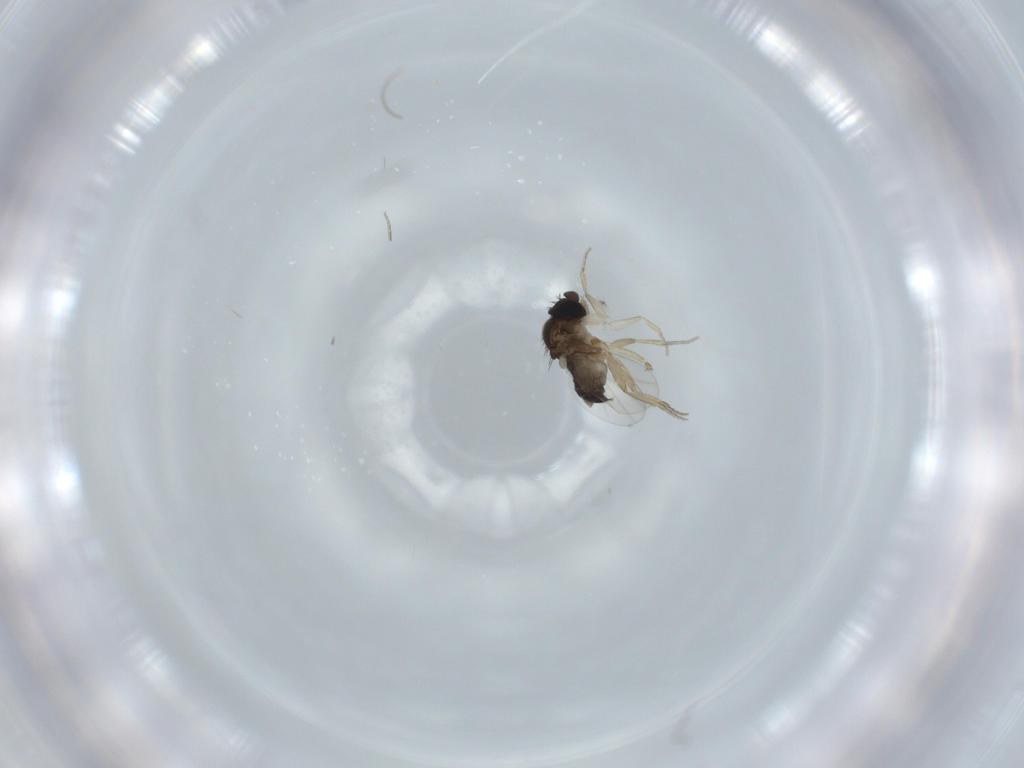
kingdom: Animalia
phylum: Arthropoda
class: Insecta
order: Diptera
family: Phoridae
